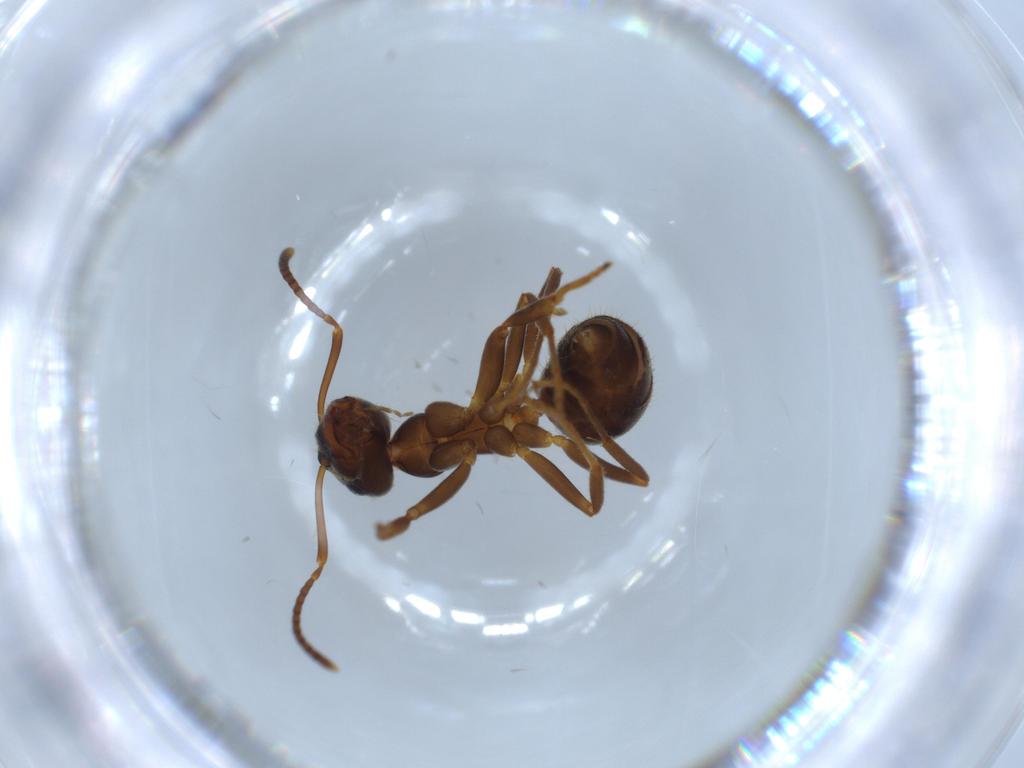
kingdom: Animalia
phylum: Arthropoda
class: Insecta
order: Hymenoptera
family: Formicidae
